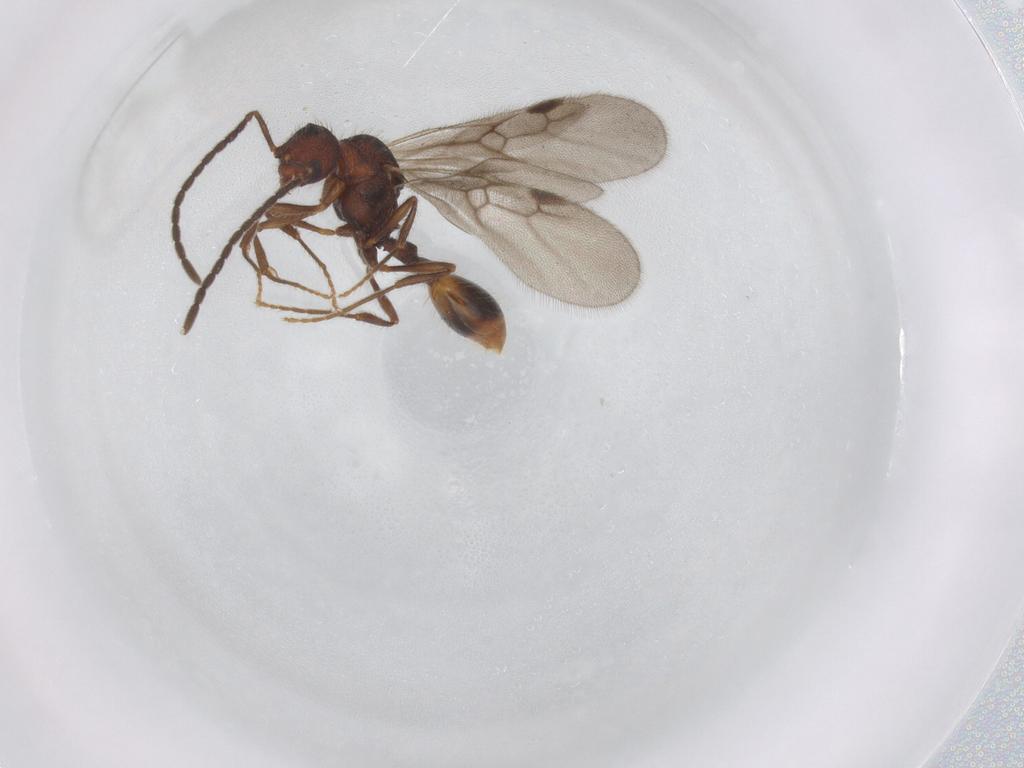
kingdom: Animalia
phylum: Arthropoda
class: Insecta
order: Hymenoptera
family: Formicidae
